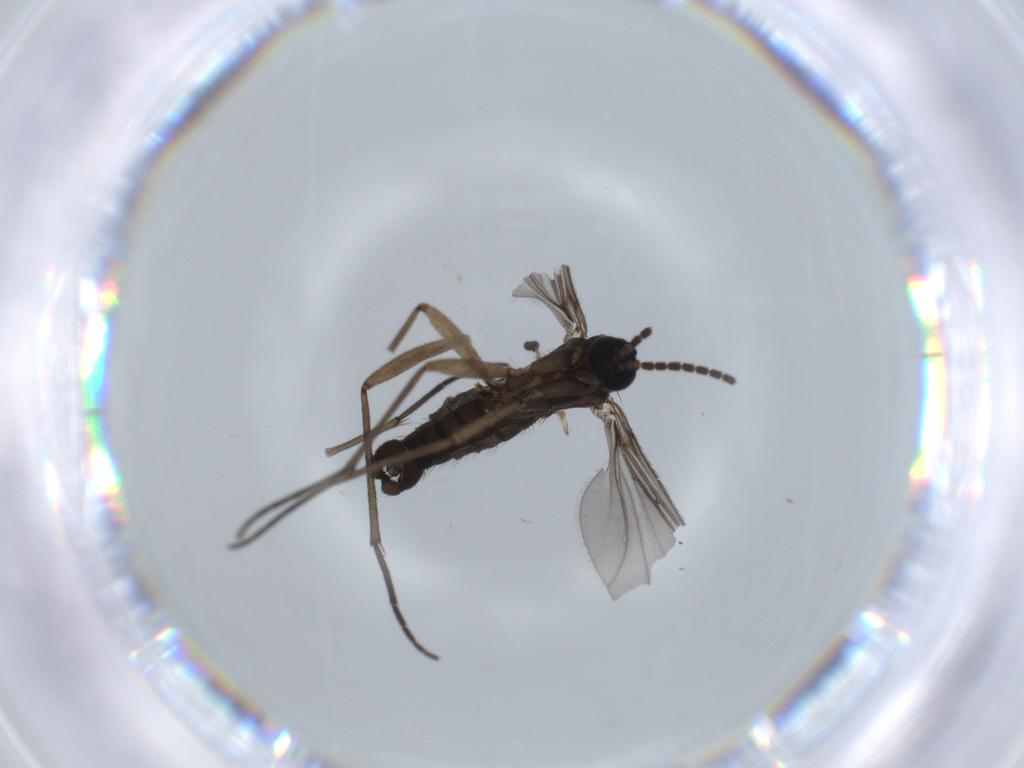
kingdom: Animalia
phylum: Arthropoda
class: Insecta
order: Diptera
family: Sciaridae
